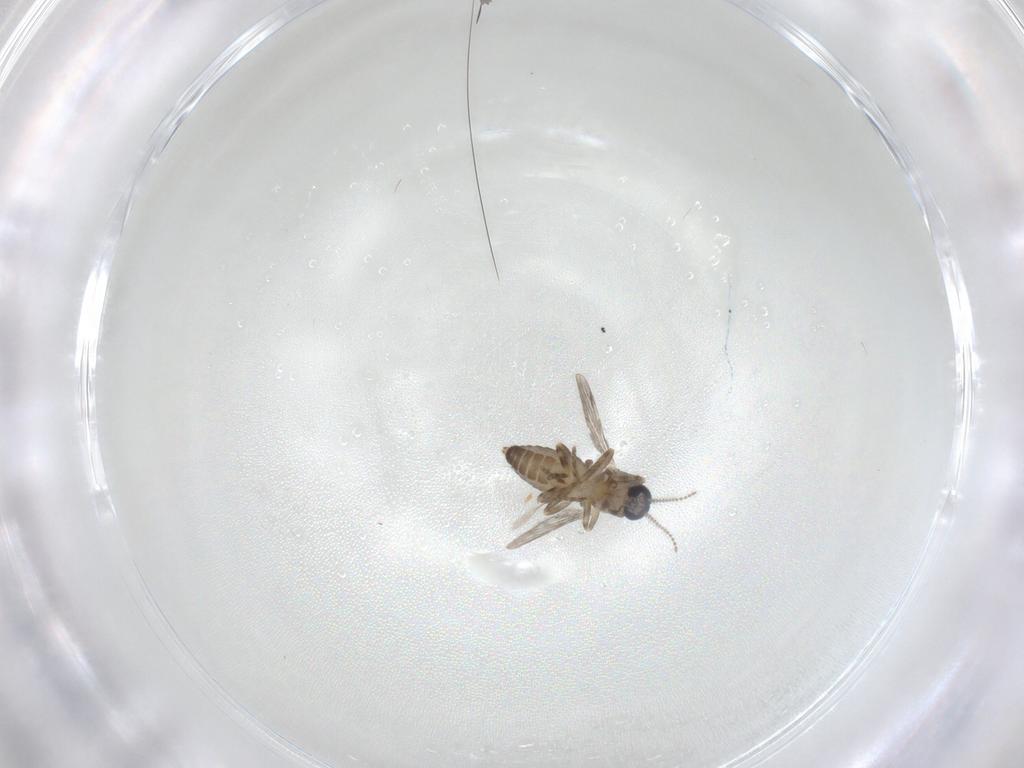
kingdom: Animalia
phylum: Arthropoda
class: Insecta
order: Diptera
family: Ceratopogonidae
